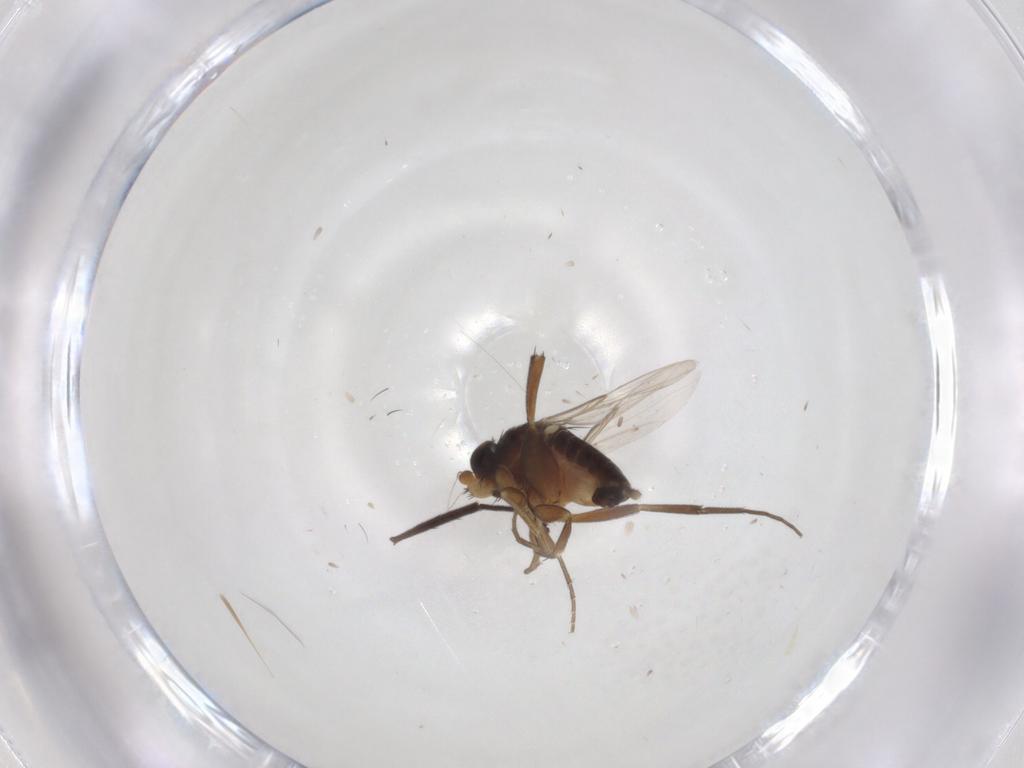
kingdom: Animalia
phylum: Arthropoda
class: Insecta
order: Diptera
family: Phoridae
